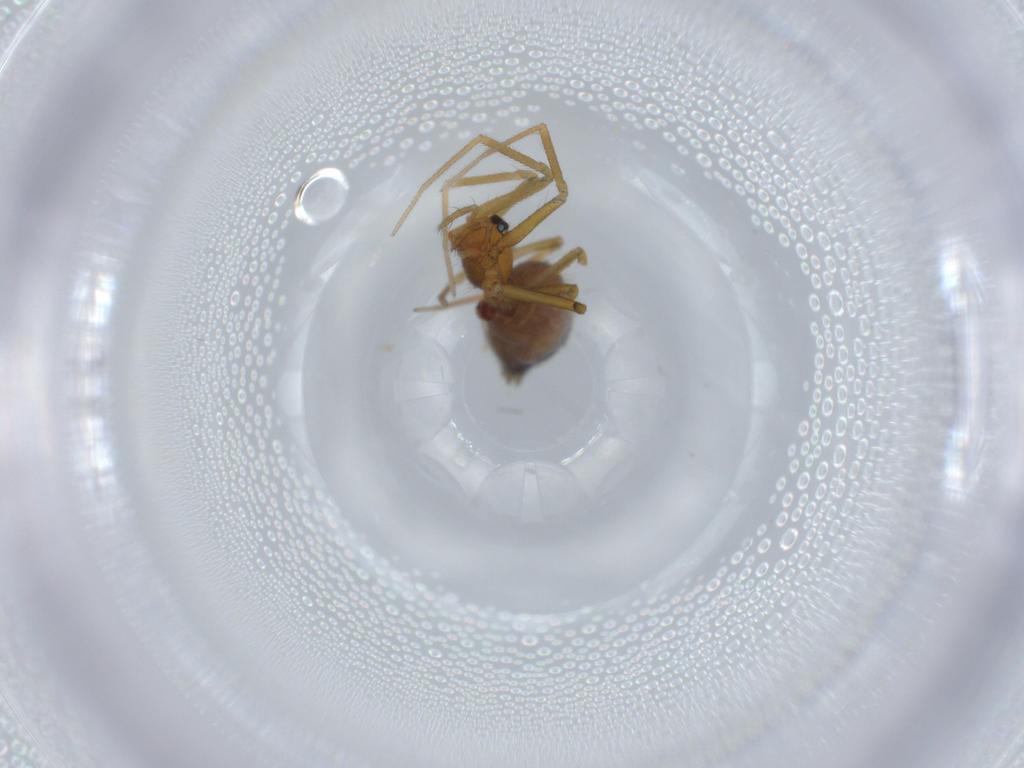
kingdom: Animalia
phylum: Arthropoda
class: Arachnida
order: Araneae
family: Linyphiidae
